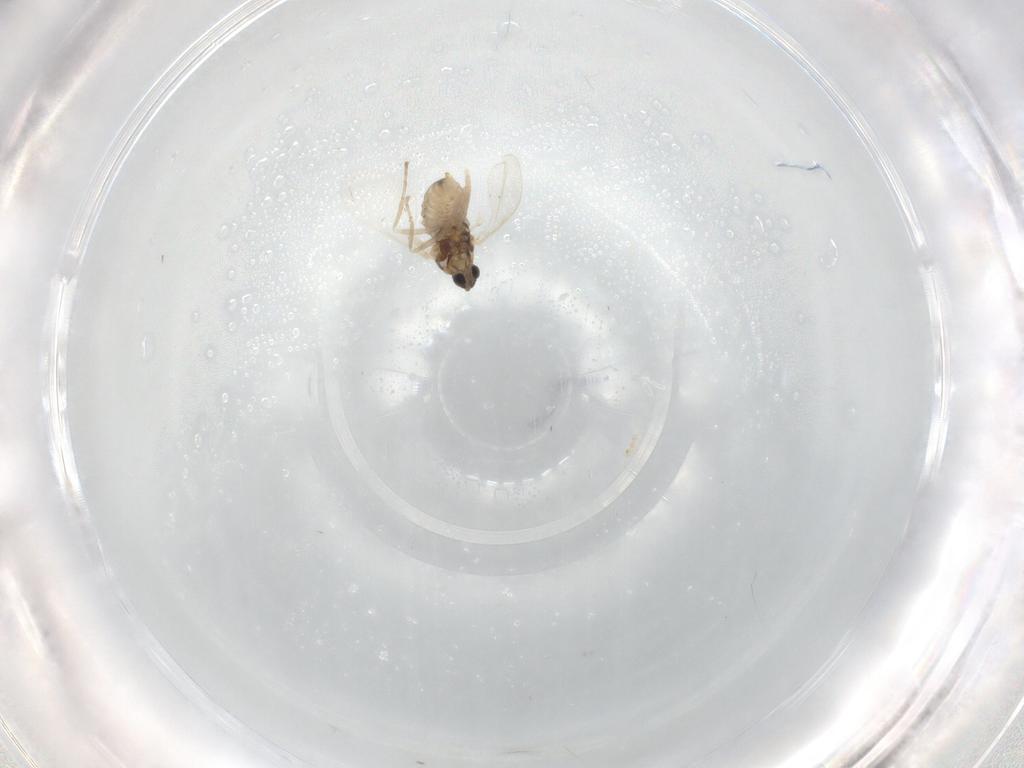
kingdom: Animalia
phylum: Arthropoda
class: Insecta
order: Diptera
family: Cecidomyiidae
